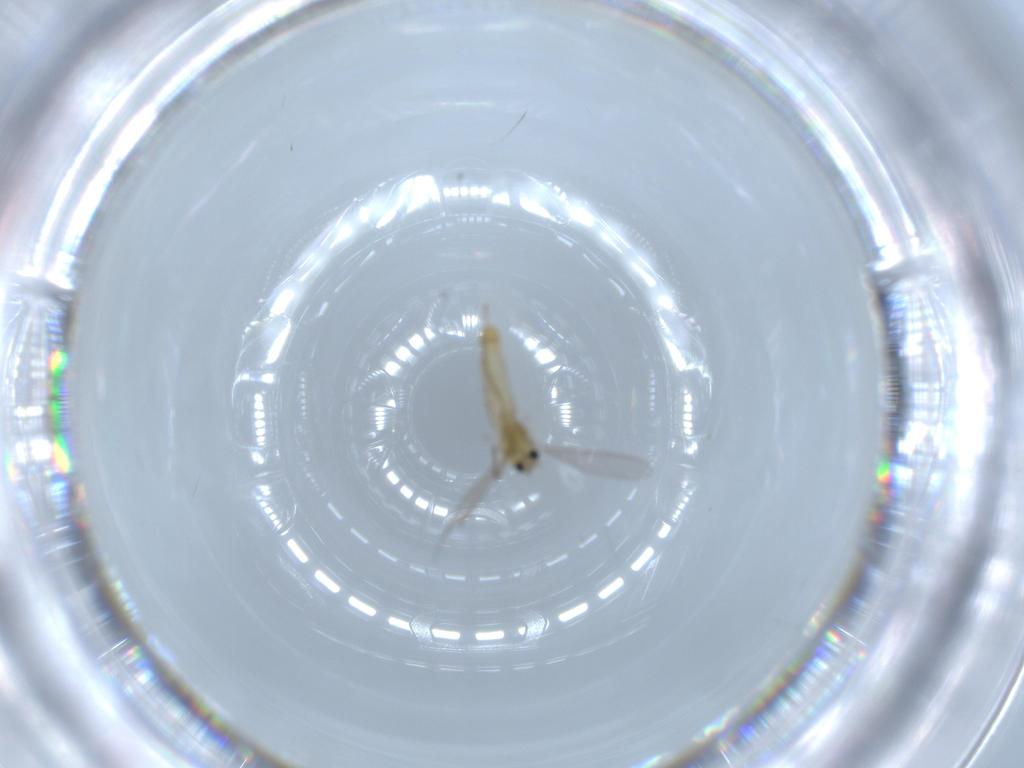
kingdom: Animalia
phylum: Arthropoda
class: Insecta
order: Diptera
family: Chironomidae
